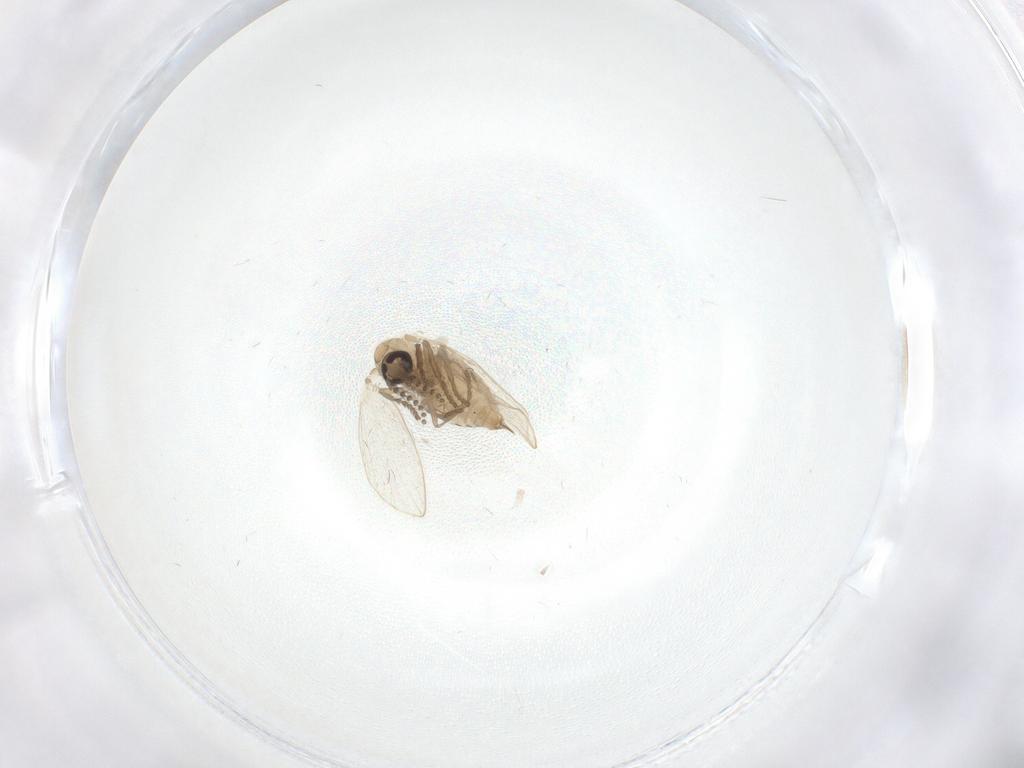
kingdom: Animalia
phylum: Arthropoda
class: Insecta
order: Diptera
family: Psychodidae
